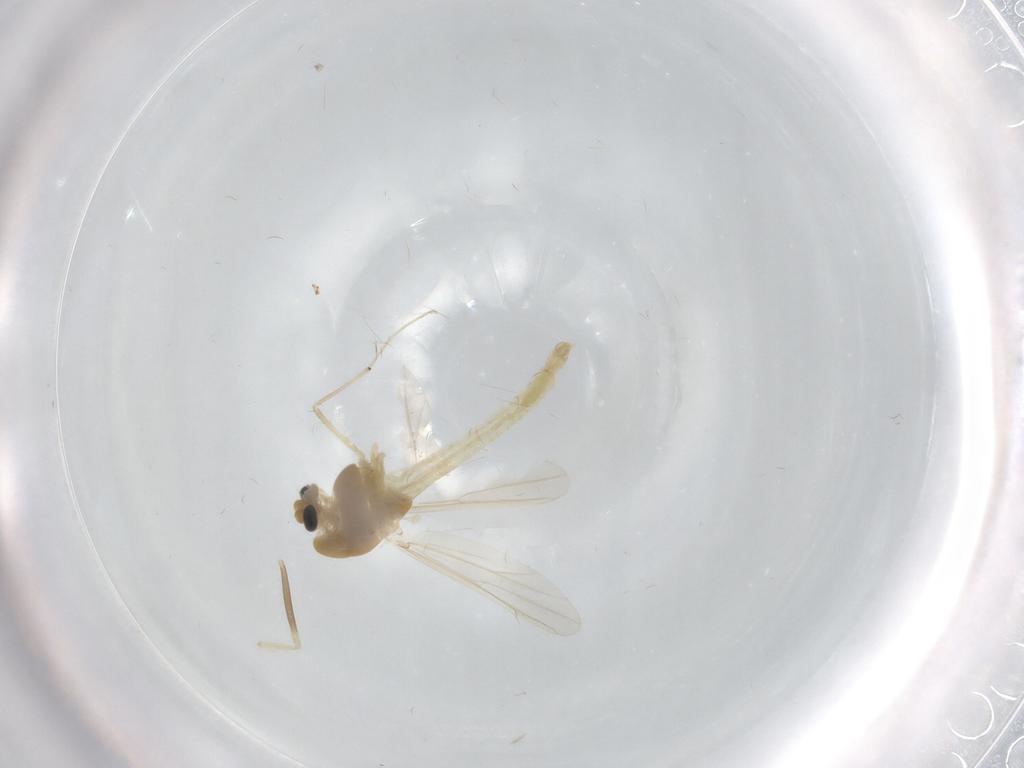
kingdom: Animalia
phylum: Arthropoda
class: Insecta
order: Diptera
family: Chironomidae
